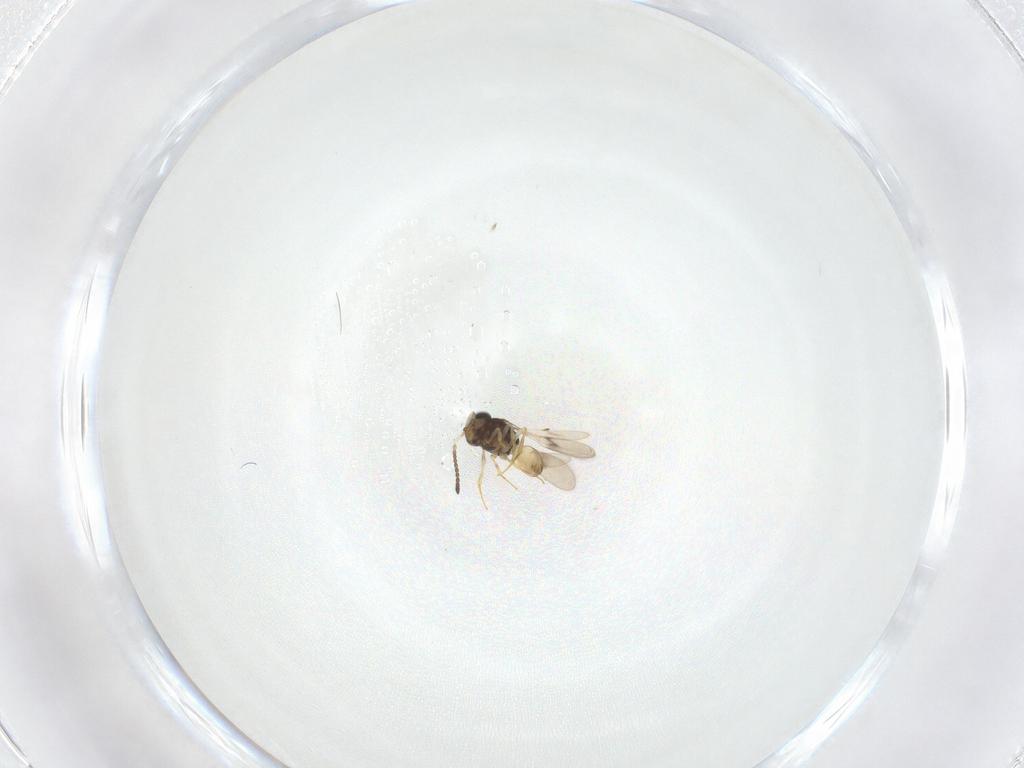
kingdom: Animalia
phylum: Arthropoda
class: Insecta
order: Hymenoptera
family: Scelionidae
